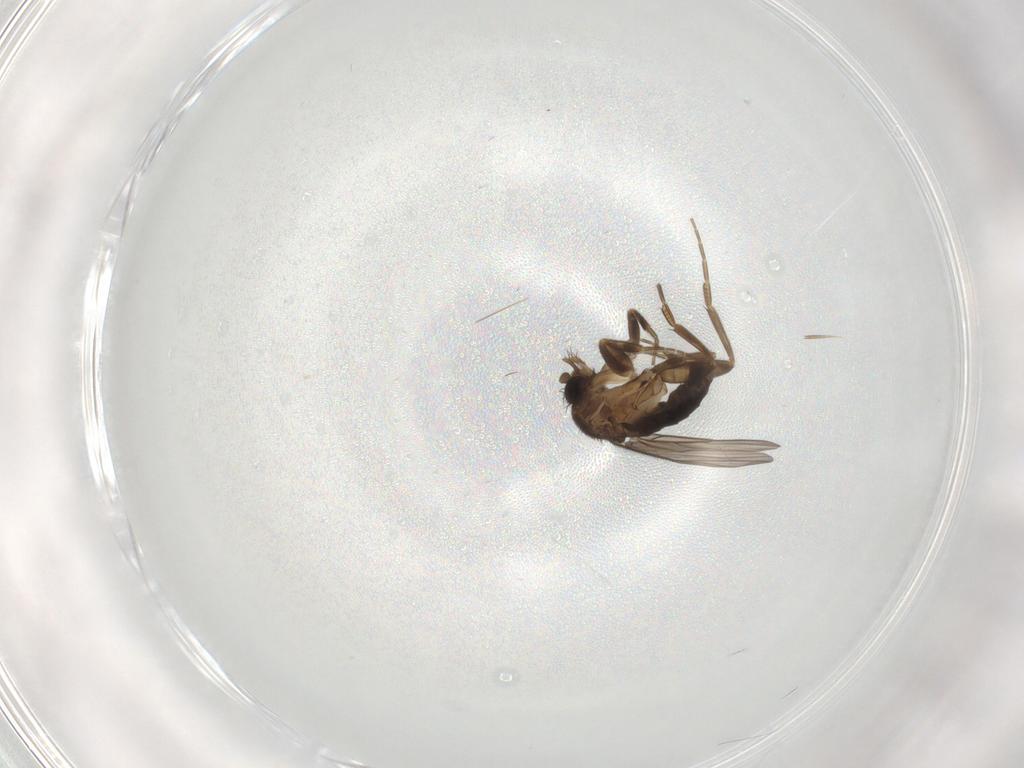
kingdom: Animalia
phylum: Arthropoda
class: Insecta
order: Diptera
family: Phoridae
